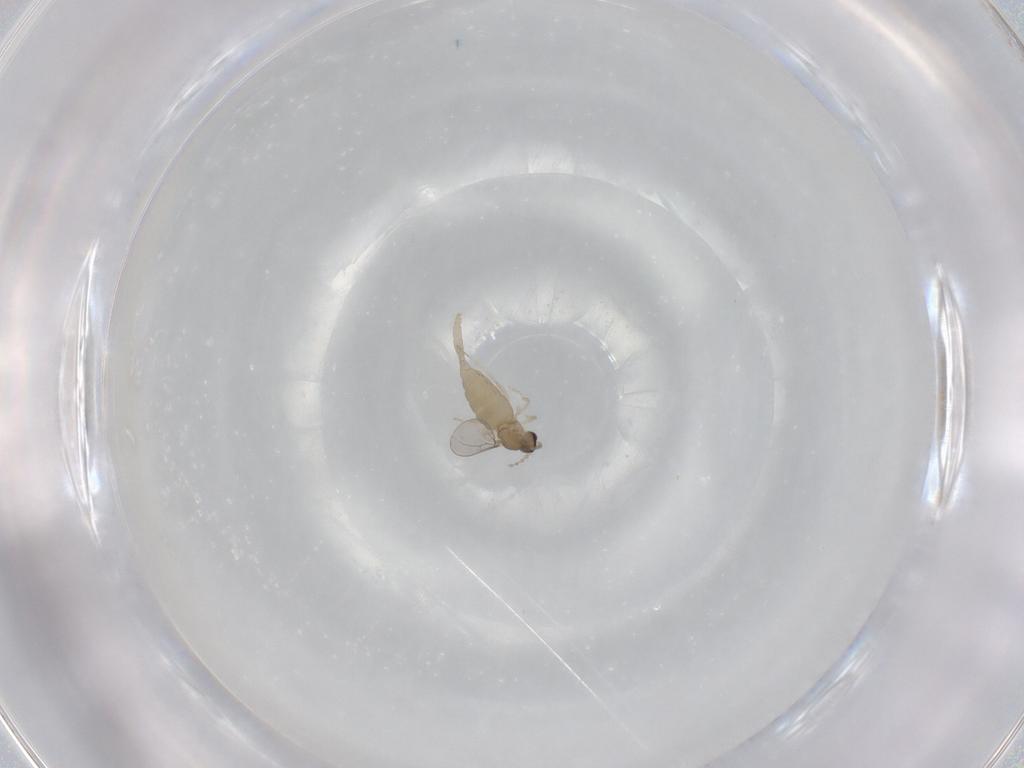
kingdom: Animalia
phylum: Arthropoda
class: Insecta
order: Diptera
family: Cecidomyiidae
